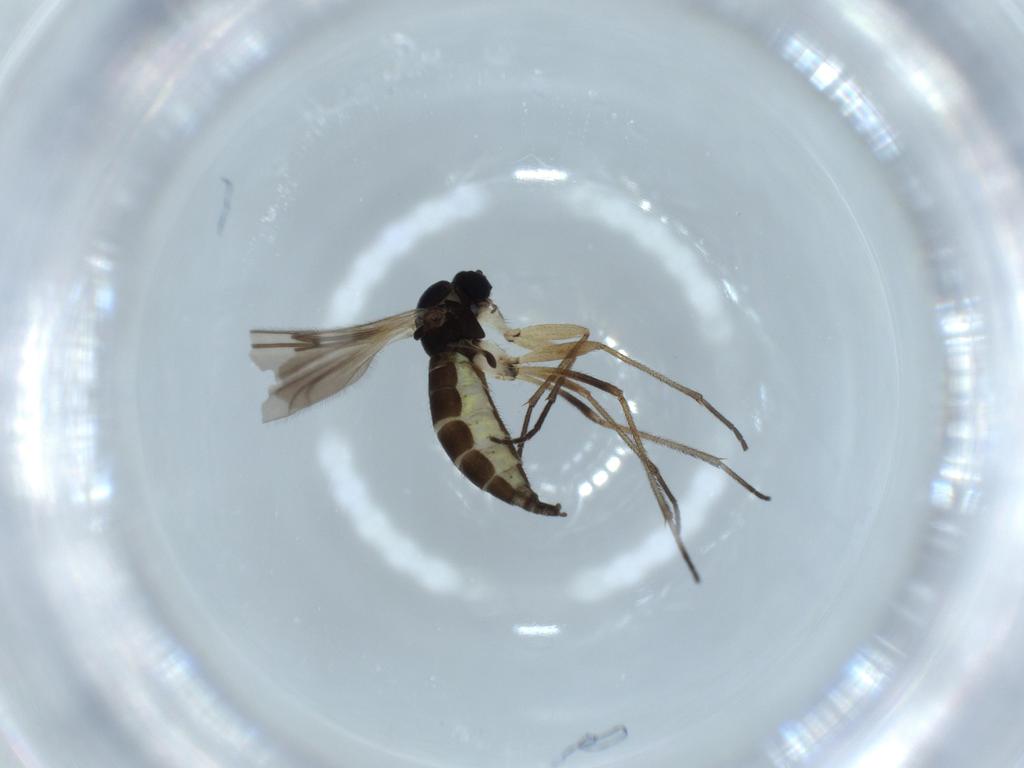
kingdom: Animalia
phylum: Arthropoda
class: Insecta
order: Diptera
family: Sciaridae
